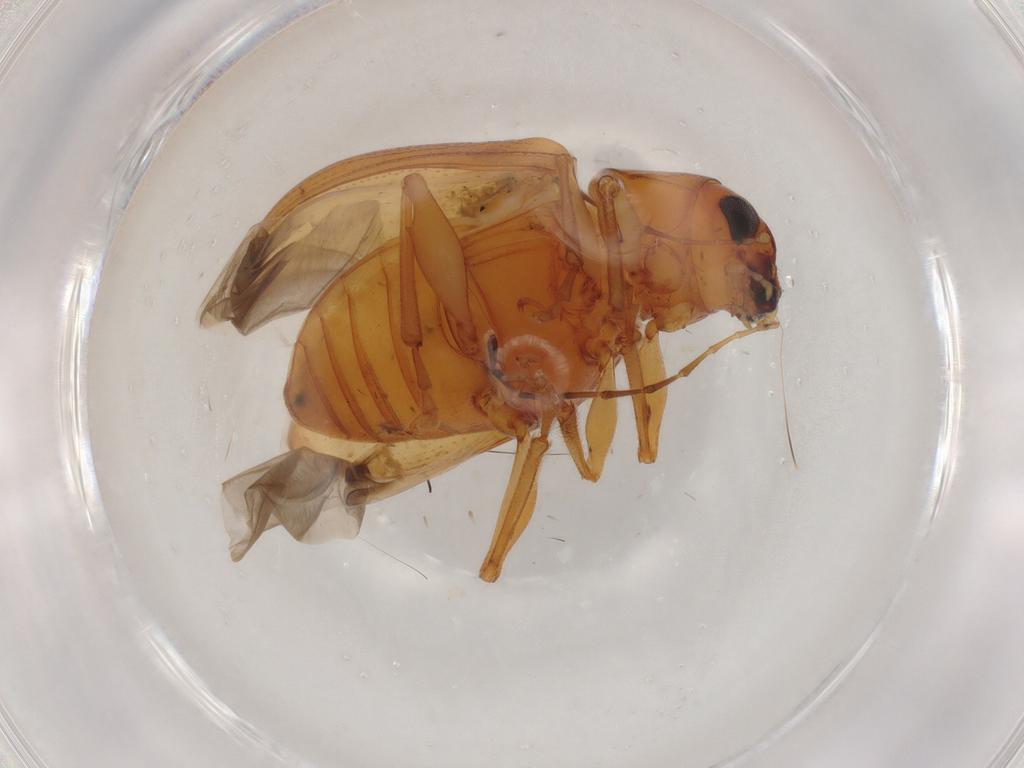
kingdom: Animalia
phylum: Arthropoda
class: Insecta
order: Coleoptera
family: Chrysomelidae
